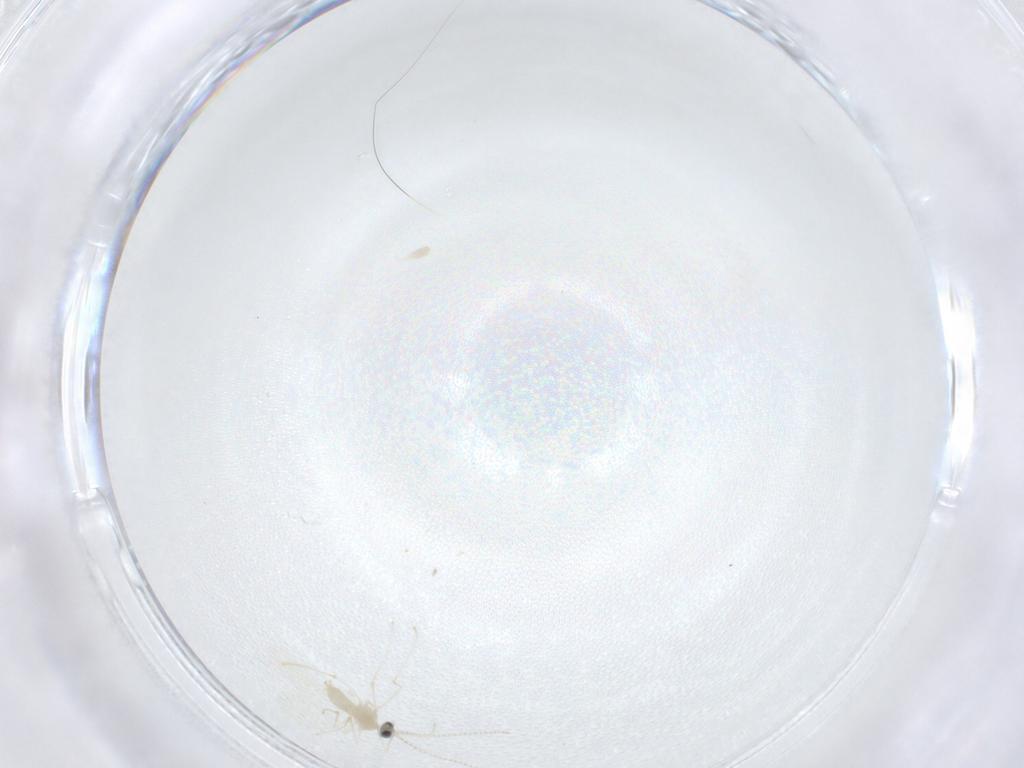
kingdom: Animalia
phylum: Arthropoda
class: Insecta
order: Diptera
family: Cecidomyiidae
